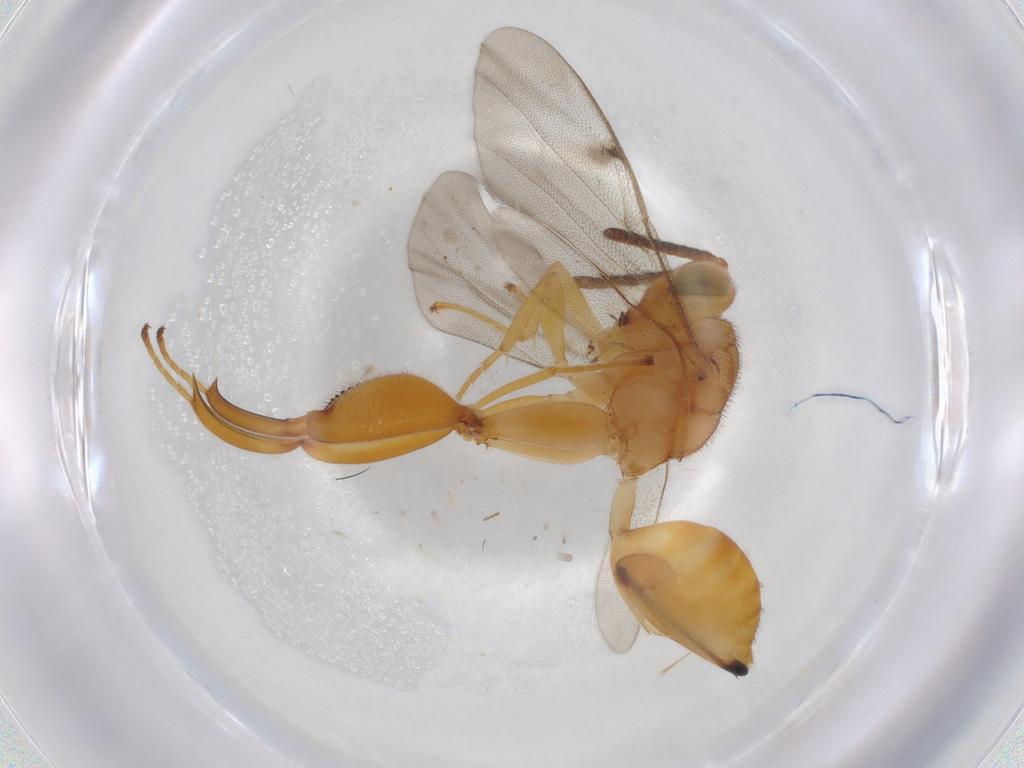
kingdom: Animalia
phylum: Arthropoda
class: Insecta
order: Hymenoptera
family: Chalcididae
